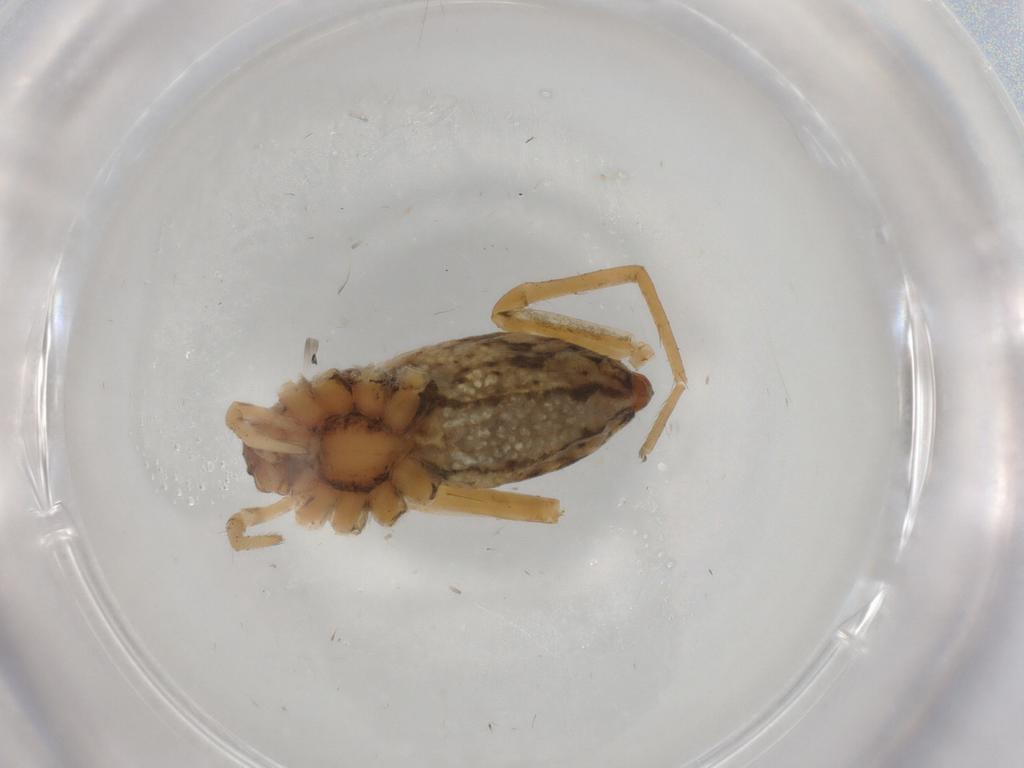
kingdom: Animalia
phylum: Arthropoda
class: Arachnida
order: Araneae
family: Pisauridae
